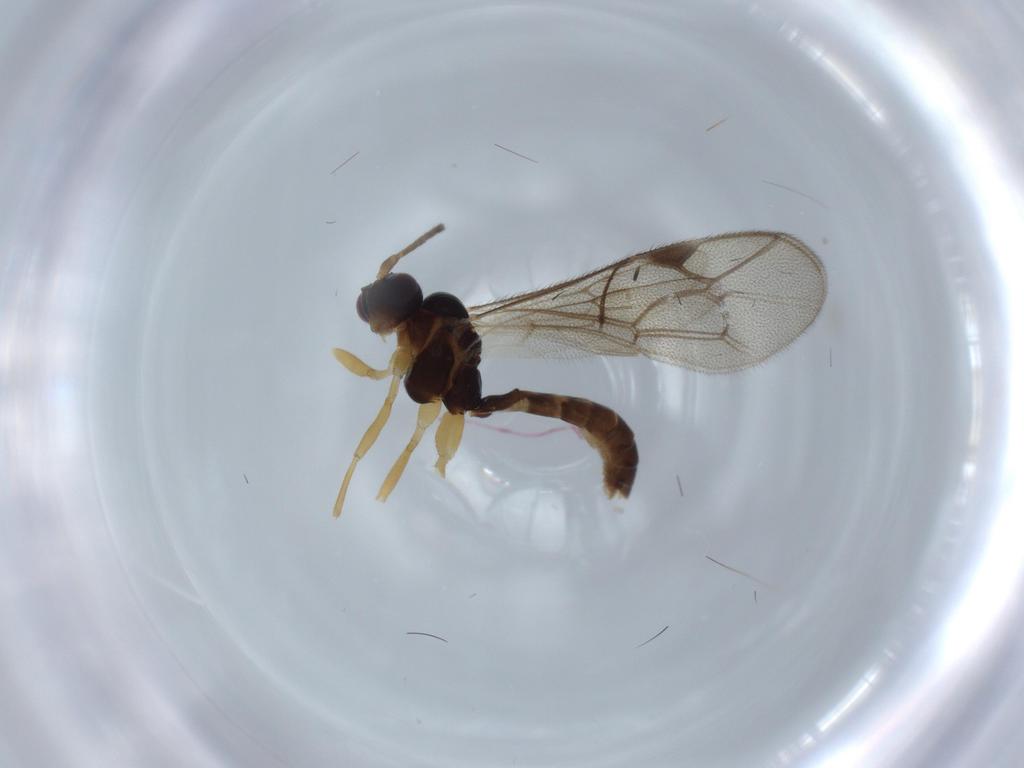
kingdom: Animalia
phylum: Arthropoda
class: Insecta
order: Hymenoptera
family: Ichneumonidae
